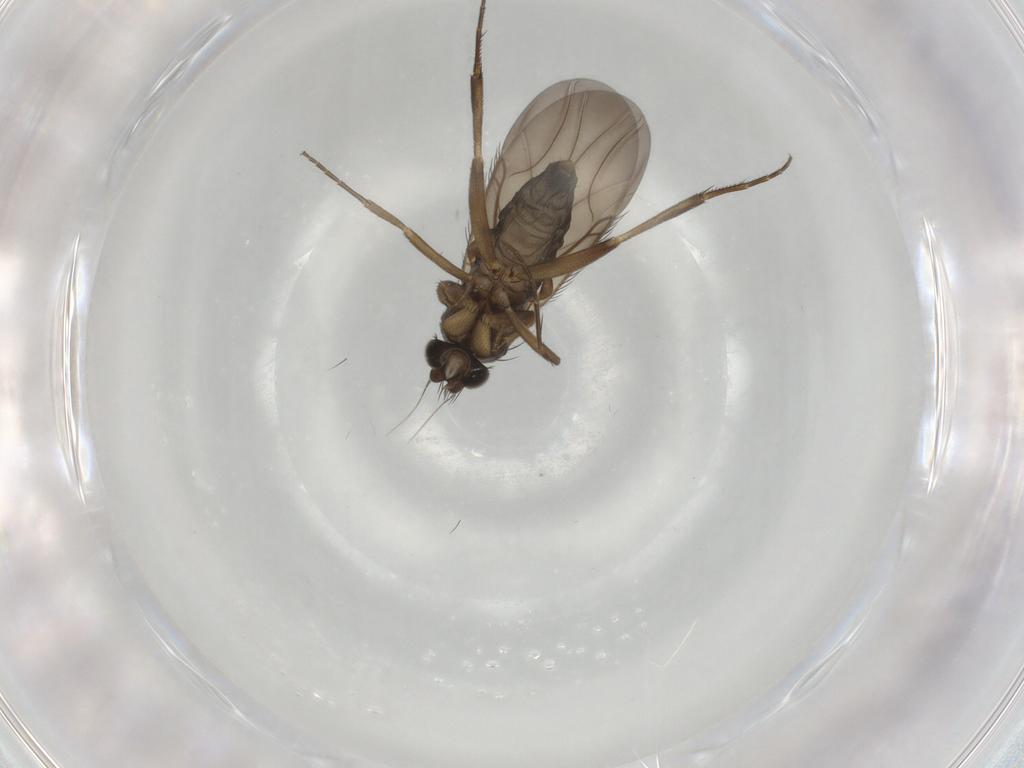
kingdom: Animalia
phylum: Arthropoda
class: Insecta
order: Diptera
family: Phoridae
